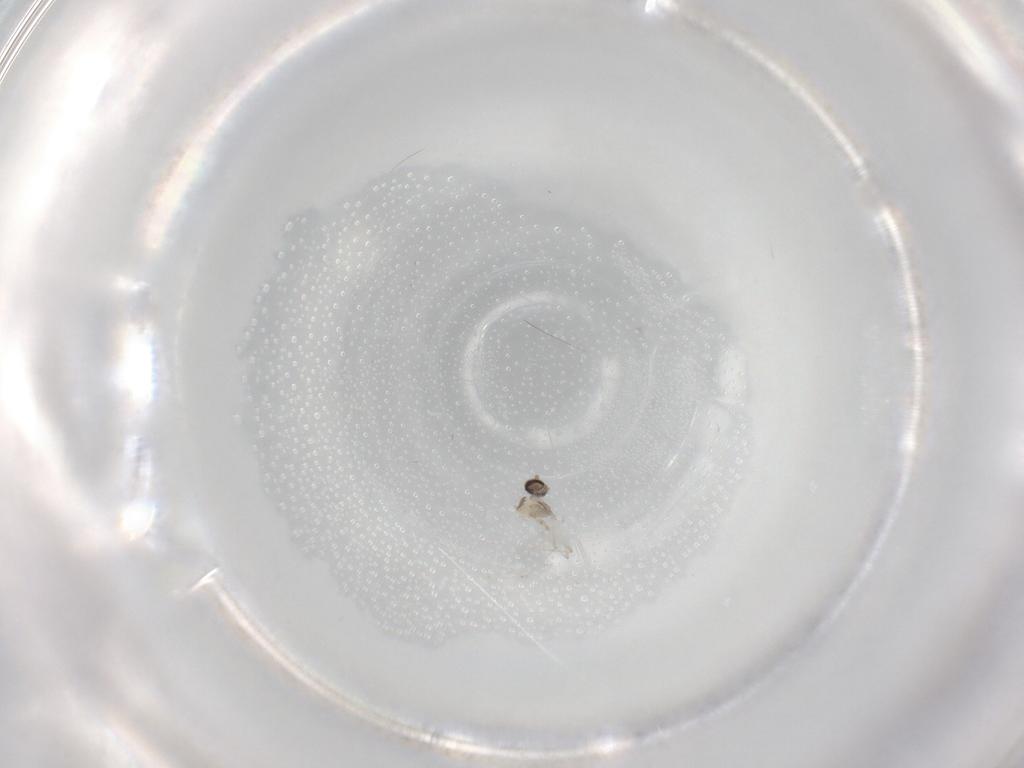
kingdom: Animalia
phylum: Arthropoda
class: Insecta
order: Diptera
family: Cecidomyiidae
